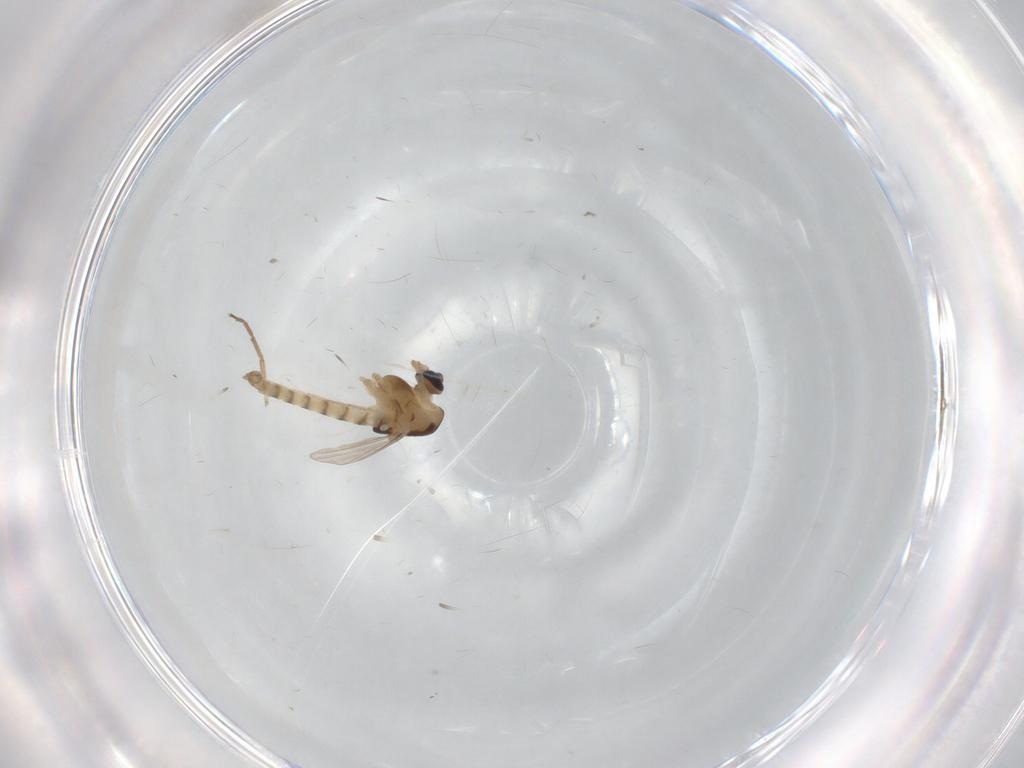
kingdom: Animalia
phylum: Arthropoda
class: Insecta
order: Diptera
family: Chironomidae
